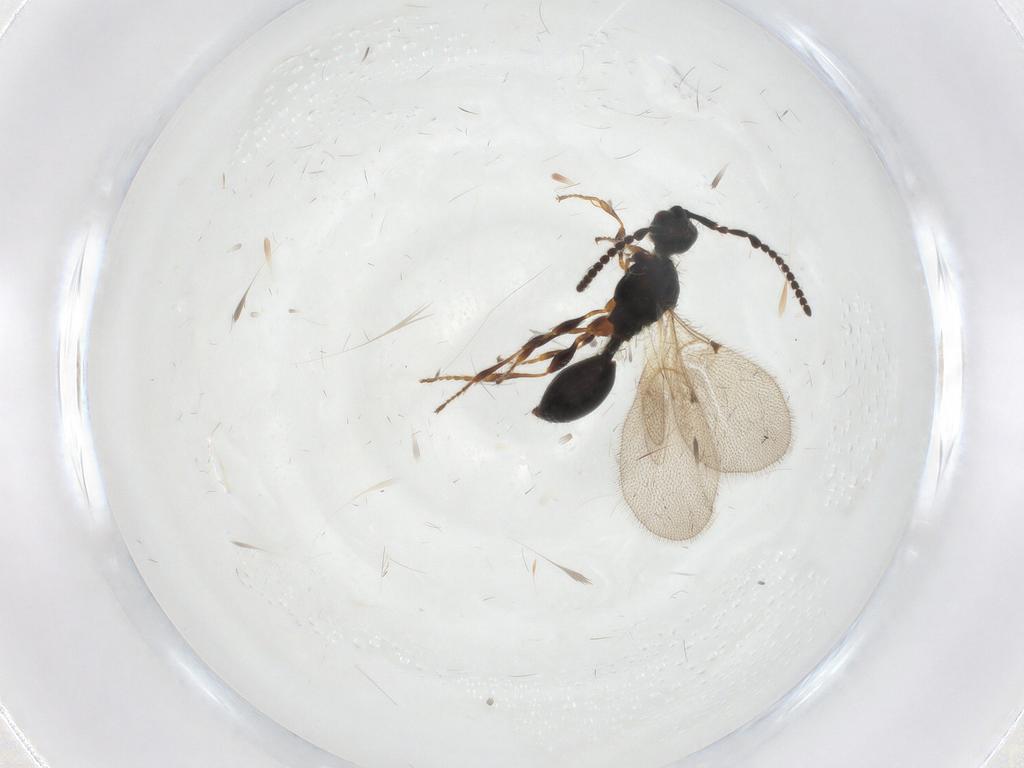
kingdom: Animalia
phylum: Arthropoda
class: Insecta
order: Hymenoptera
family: Diapriidae
